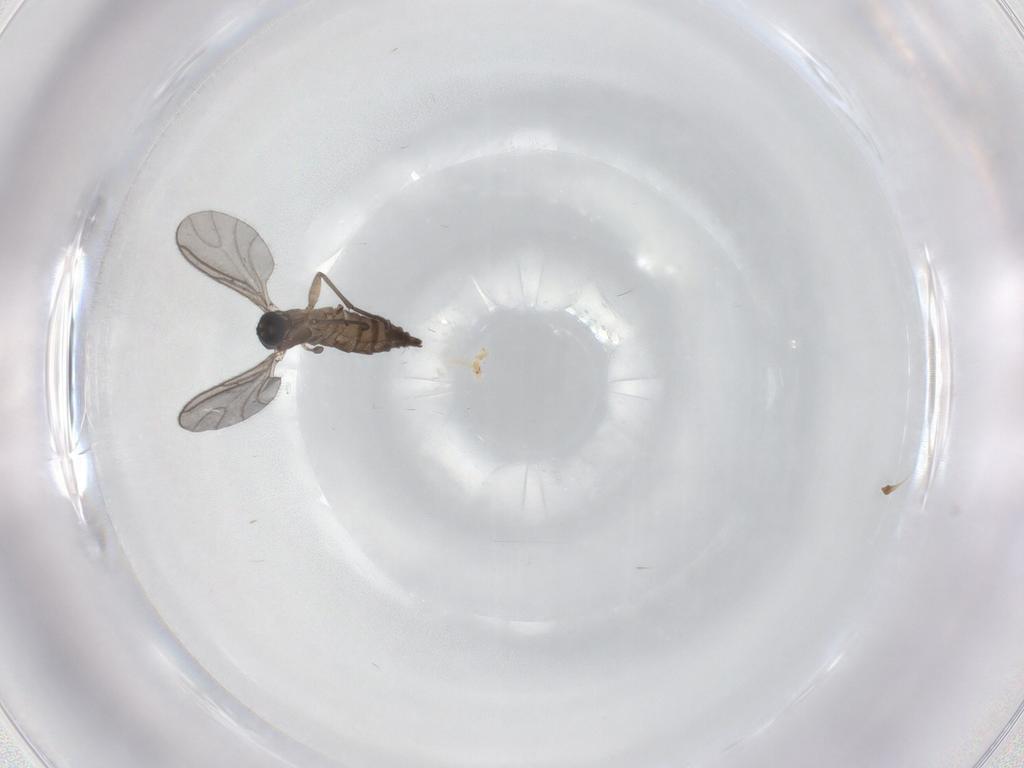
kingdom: Animalia
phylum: Arthropoda
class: Insecta
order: Diptera
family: Sciaridae
